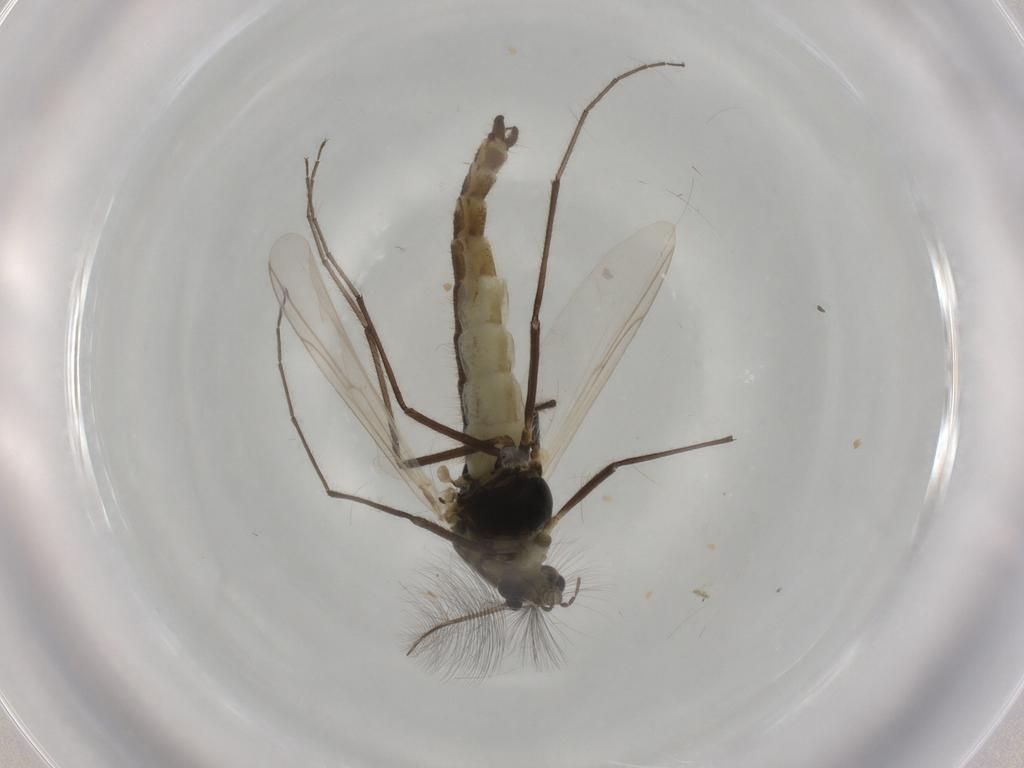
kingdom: Animalia
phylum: Arthropoda
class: Insecta
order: Diptera
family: Chironomidae
